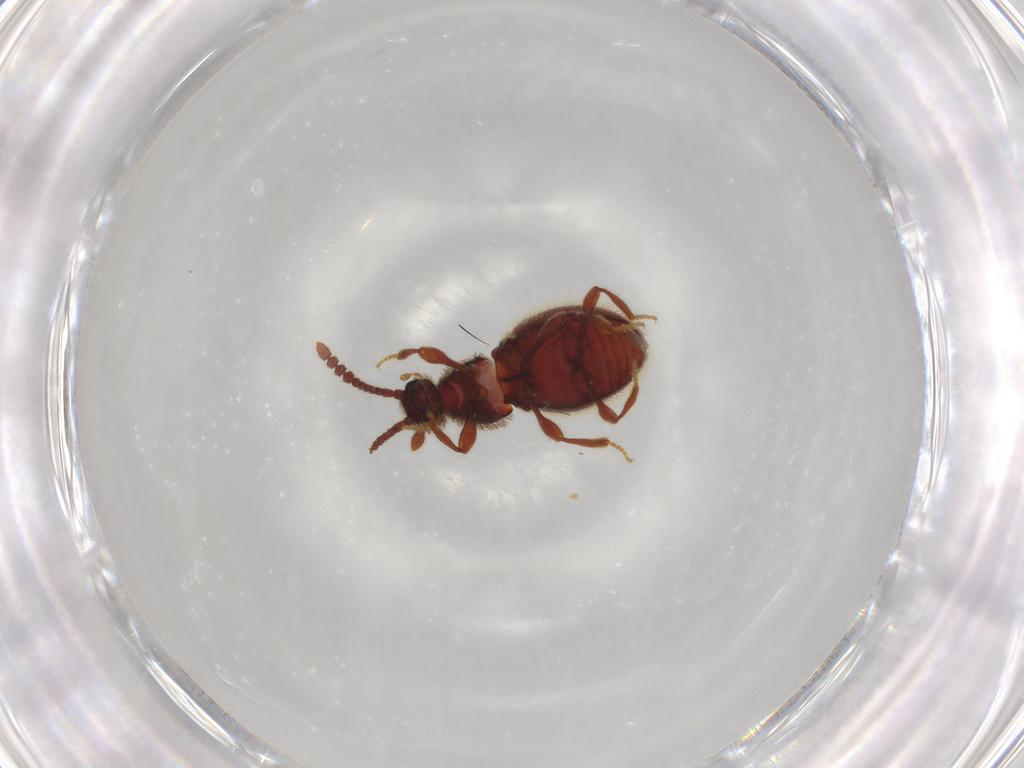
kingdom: Animalia
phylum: Arthropoda
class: Insecta
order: Coleoptera
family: Staphylinidae
